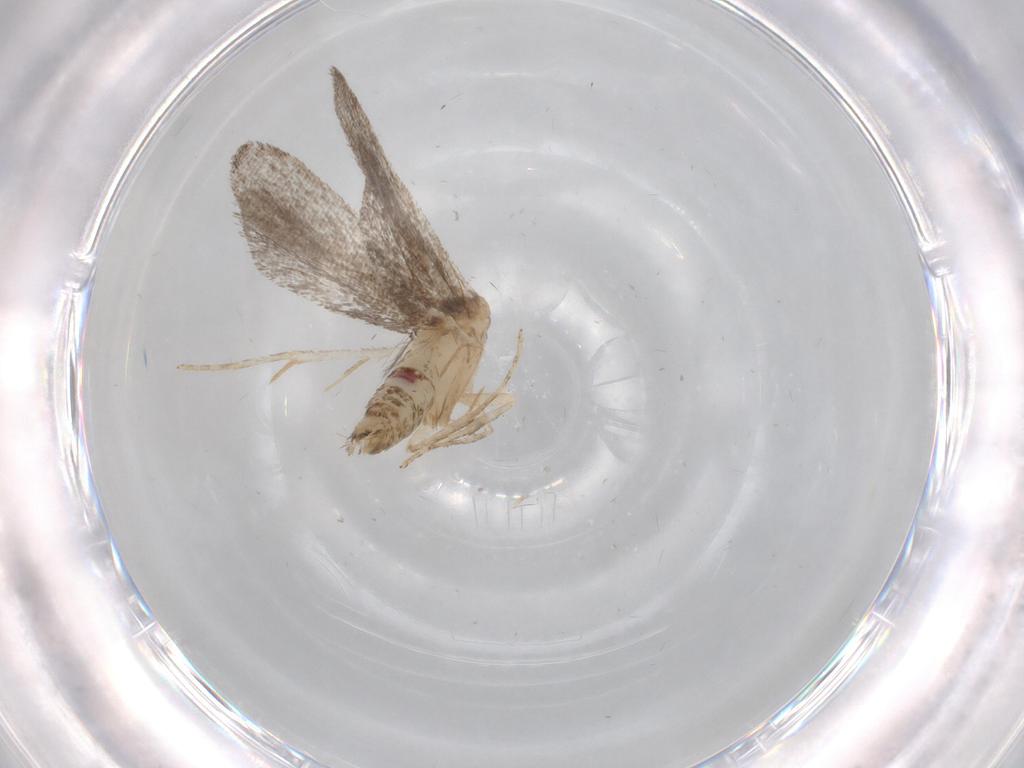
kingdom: Animalia
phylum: Arthropoda
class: Insecta
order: Lepidoptera
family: Gelechiidae
